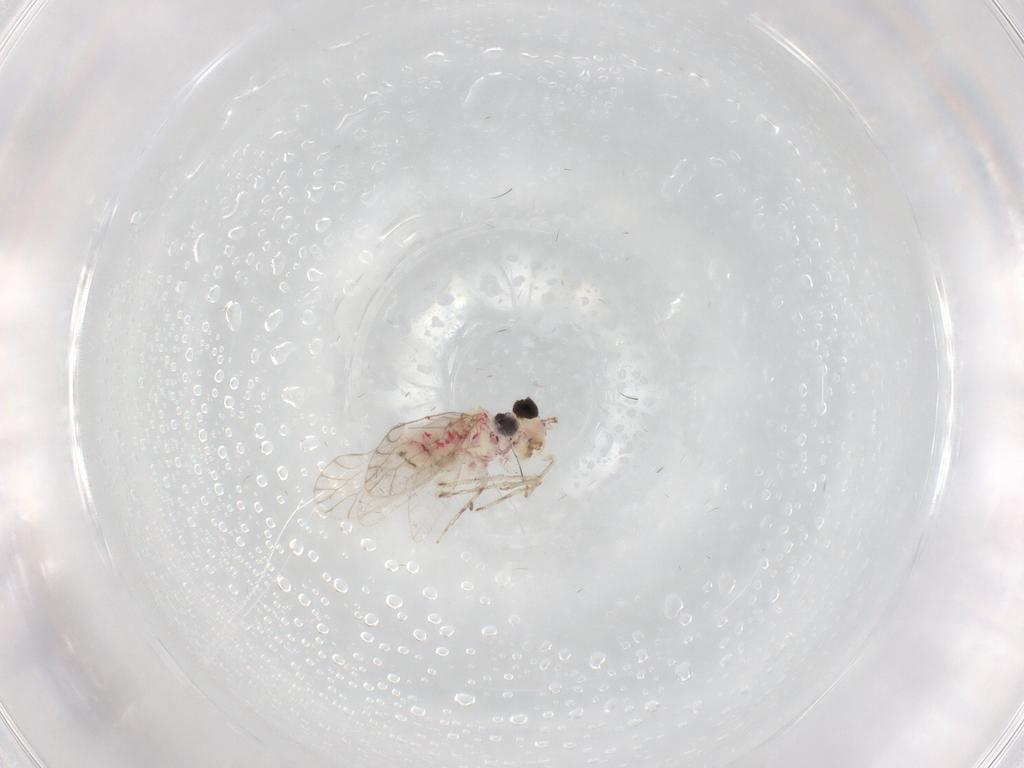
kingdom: Animalia
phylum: Arthropoda
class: Insecta
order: Psocodea
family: Caeciliusidae
